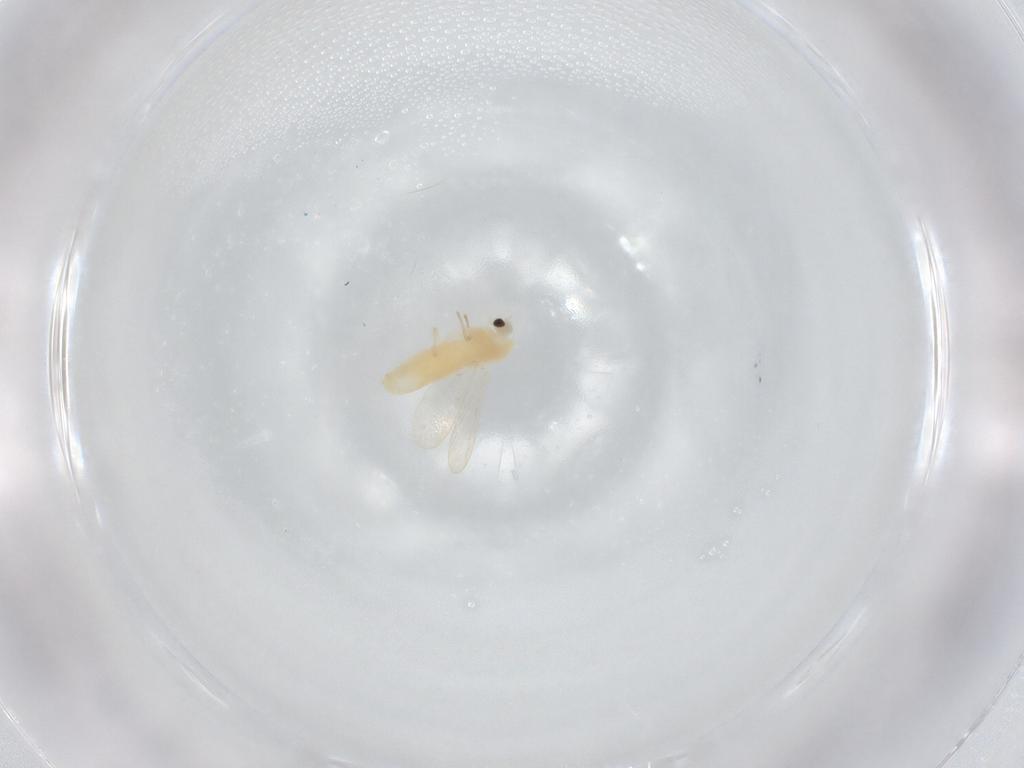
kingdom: Animalia
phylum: Arthropoda
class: Insecta
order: Diptera
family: Chironomidae
